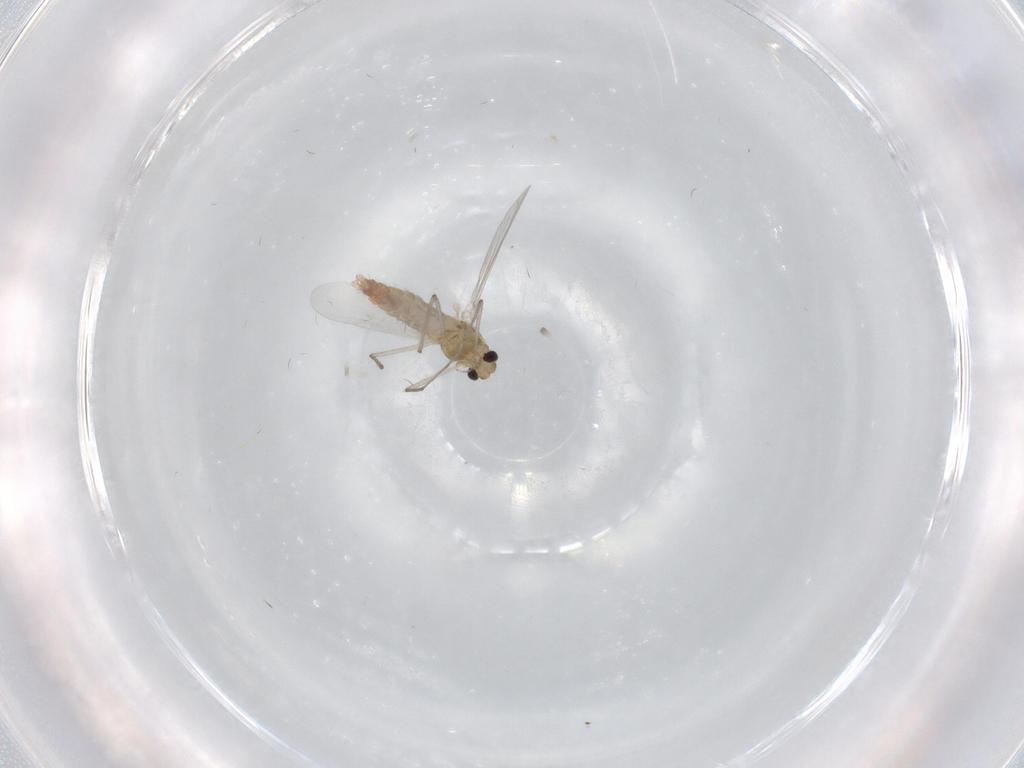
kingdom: Animalia
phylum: Arthropoda
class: Insecta
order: Diptera
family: Chironomidae
